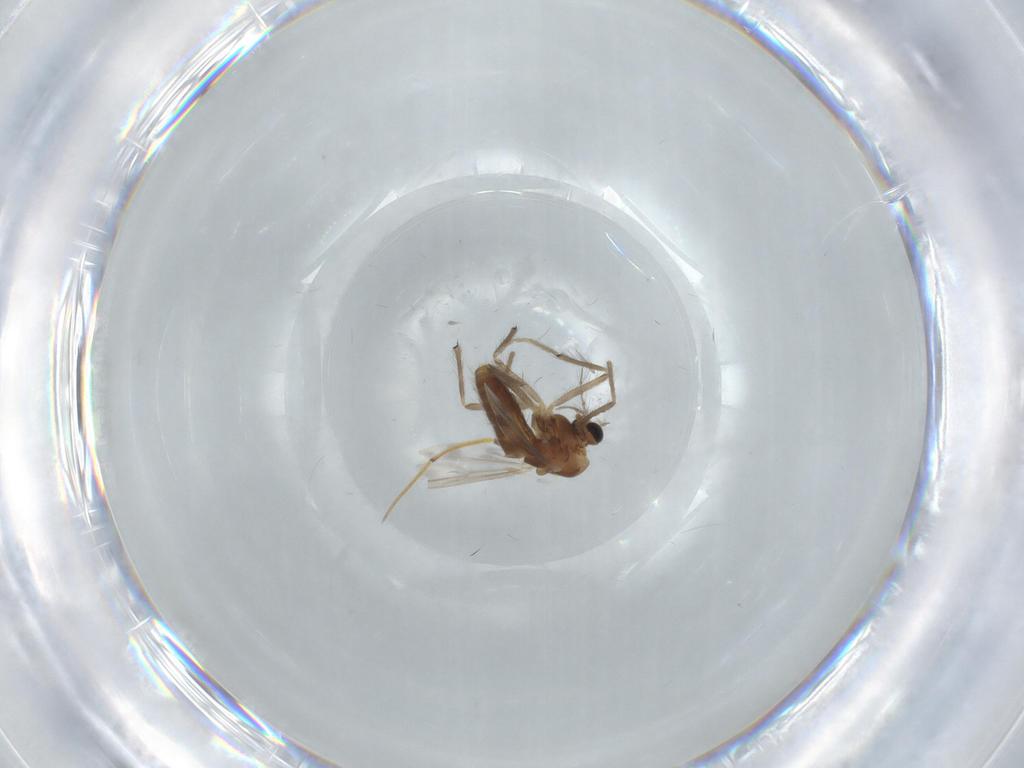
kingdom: Animalia
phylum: Arthropoda
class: Insecta
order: Diptera
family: Chironomidae
